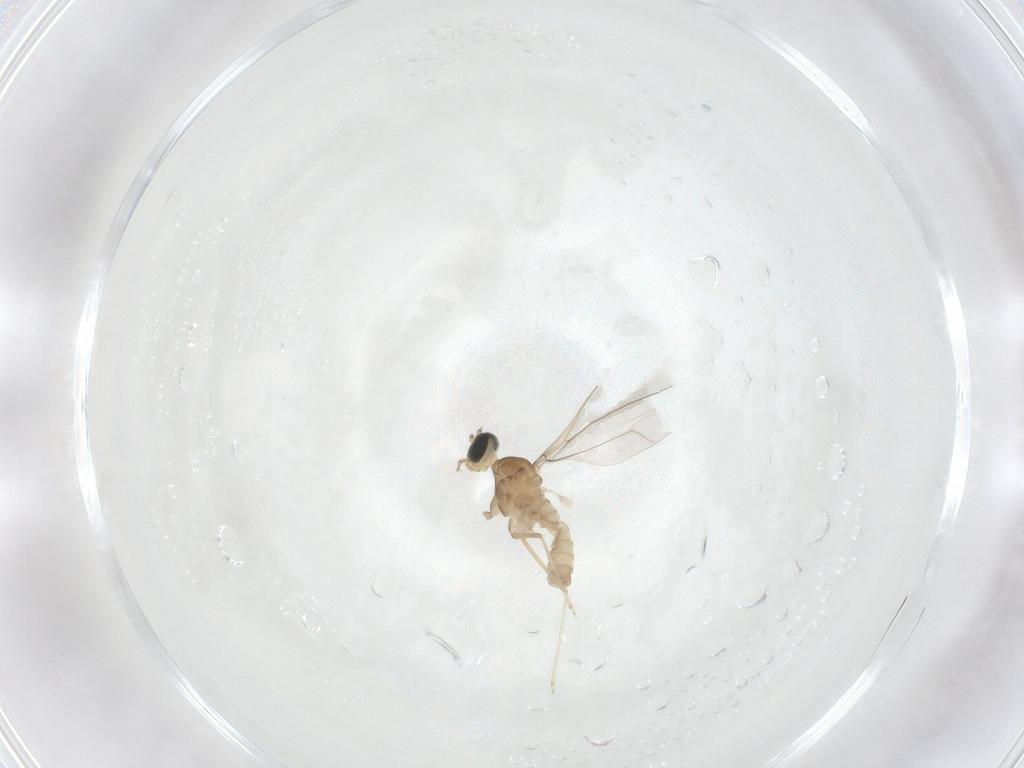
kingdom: Animalia
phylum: Arthropoda
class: Insecta
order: Diptera
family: Cecidomyiidae
